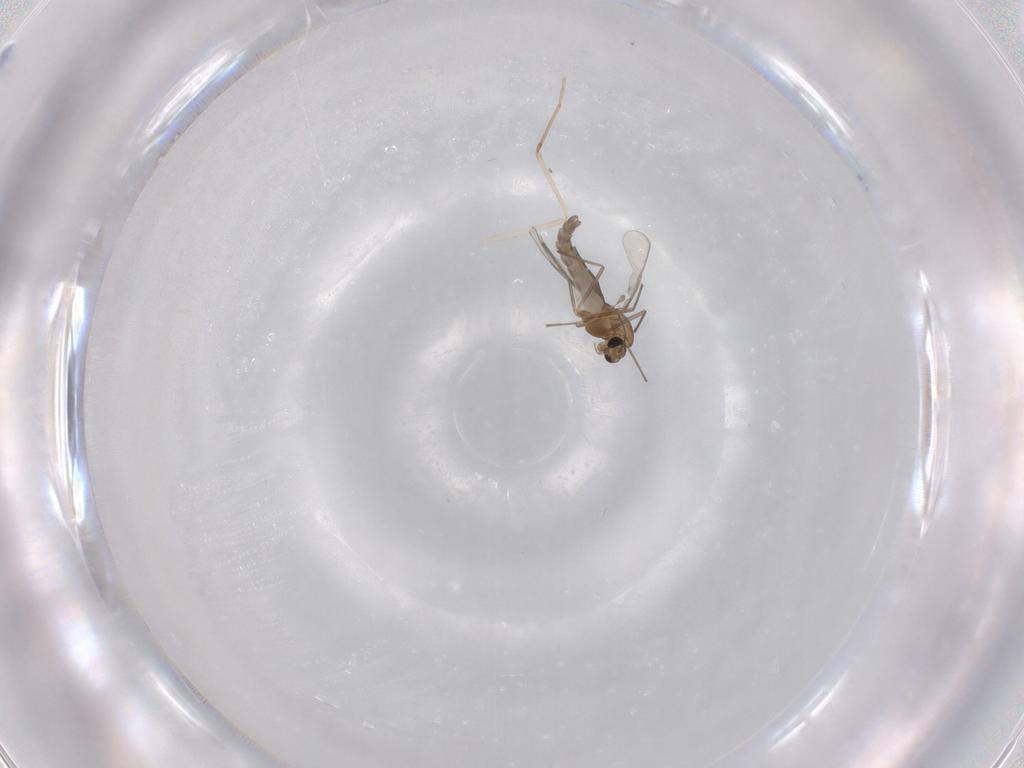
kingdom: Animalia
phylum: Arthropoda
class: Insecta
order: Diptera
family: Chironomidae
